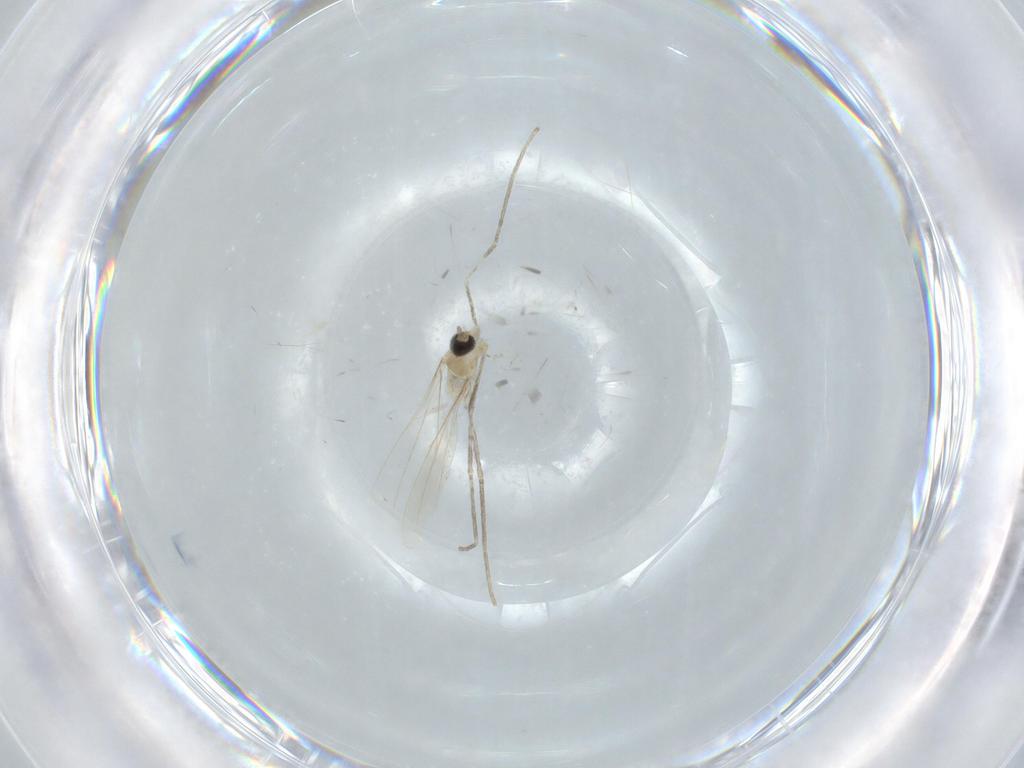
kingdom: Animalia
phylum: Arthropoda
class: Insecta
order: Diptera
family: Cecidomyiidae
